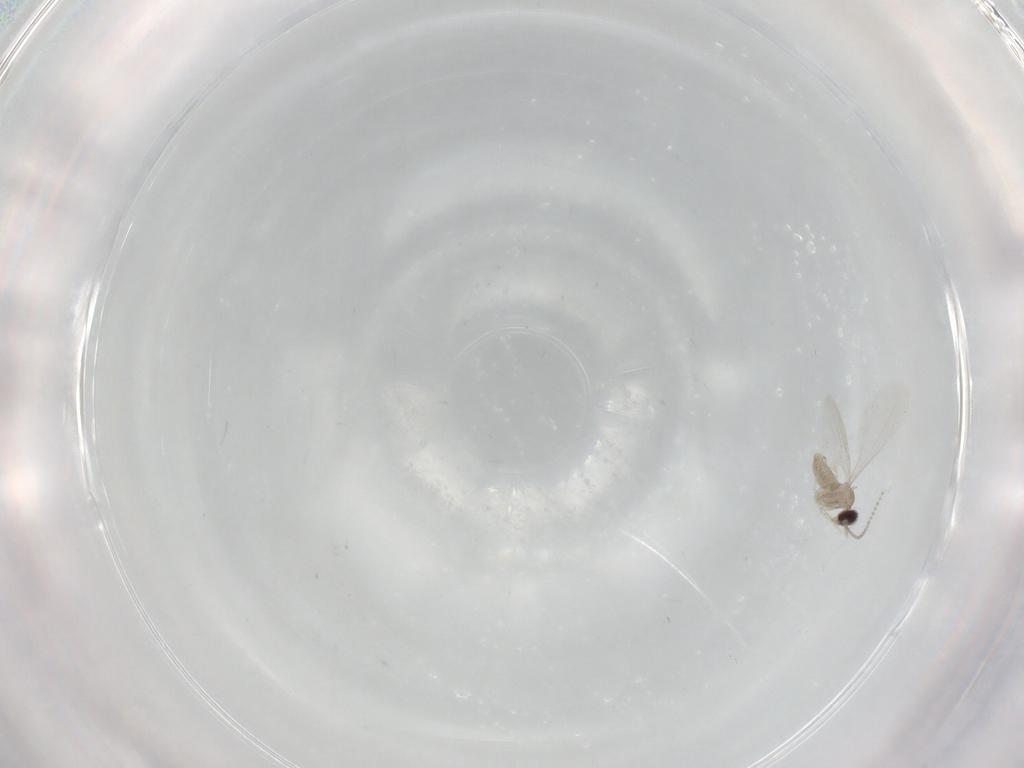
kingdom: Animalia
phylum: Arthropoda
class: Insecta
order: Diptera
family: Cecidomyiidae
